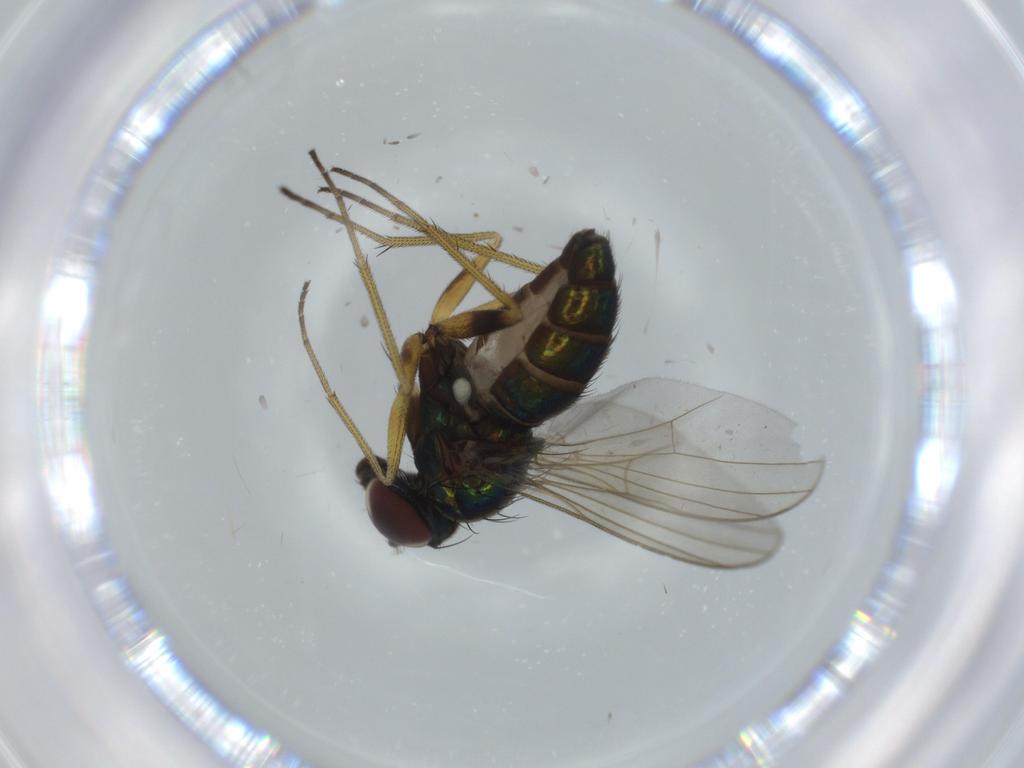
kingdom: Animalia
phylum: Arthropoda
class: Insecta
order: Diptera
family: Dolichopodidae
